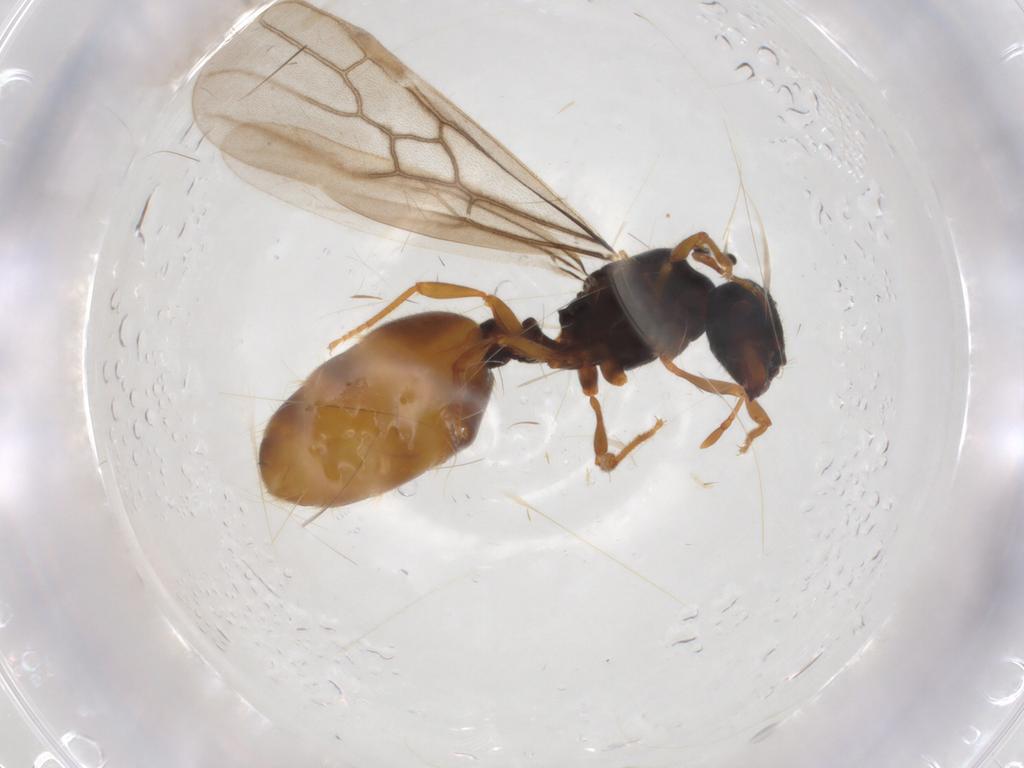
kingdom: Animalia
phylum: Arthropoda
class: Insecta
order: Hymenoptera
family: Formicidae
